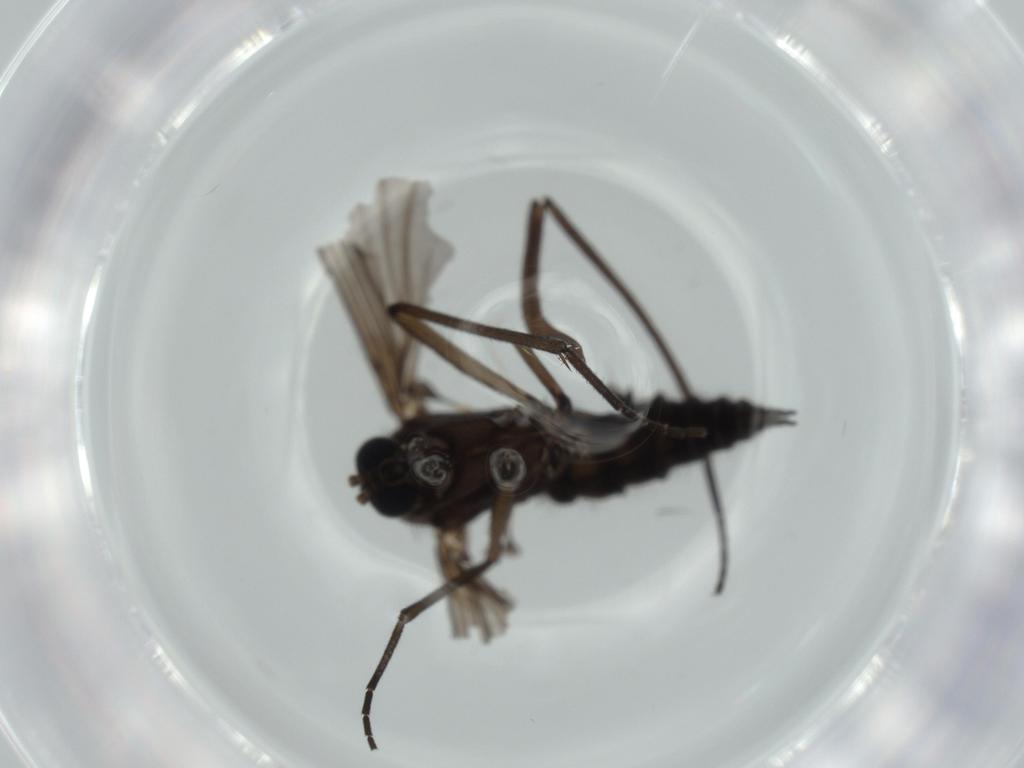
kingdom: Animalia
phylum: Arthropoda
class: Insecta
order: Diptera
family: Sciaridae
